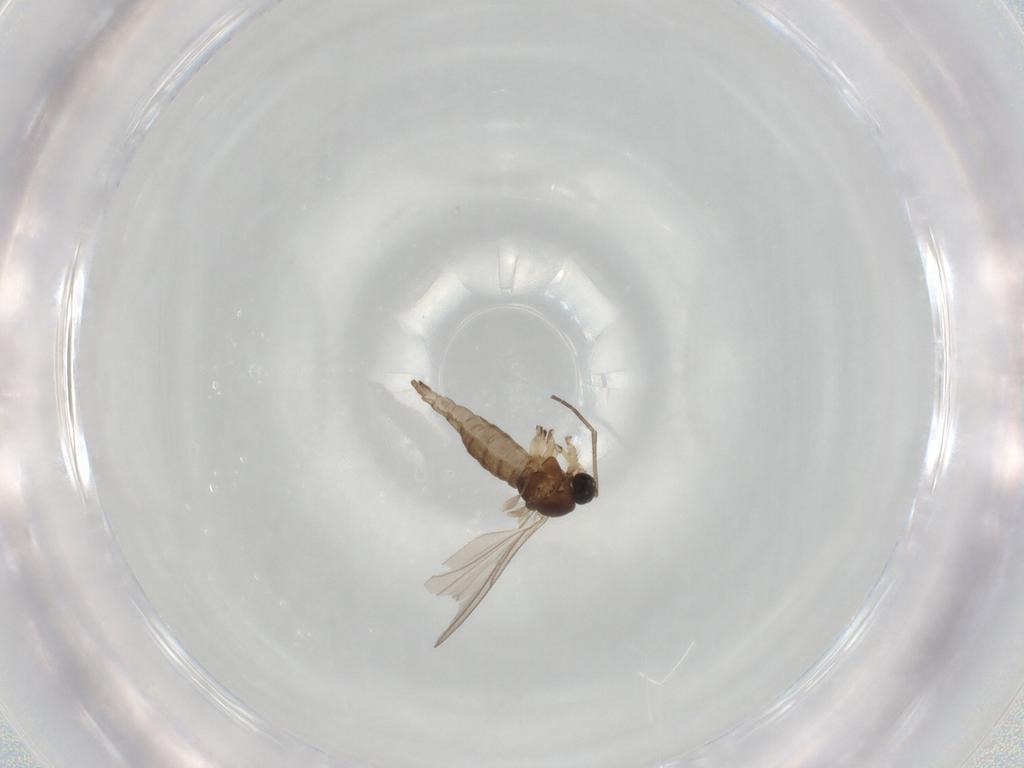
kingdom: Animalia
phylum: Arthropoda
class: Insecta
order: Diptera
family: Sciaridae
